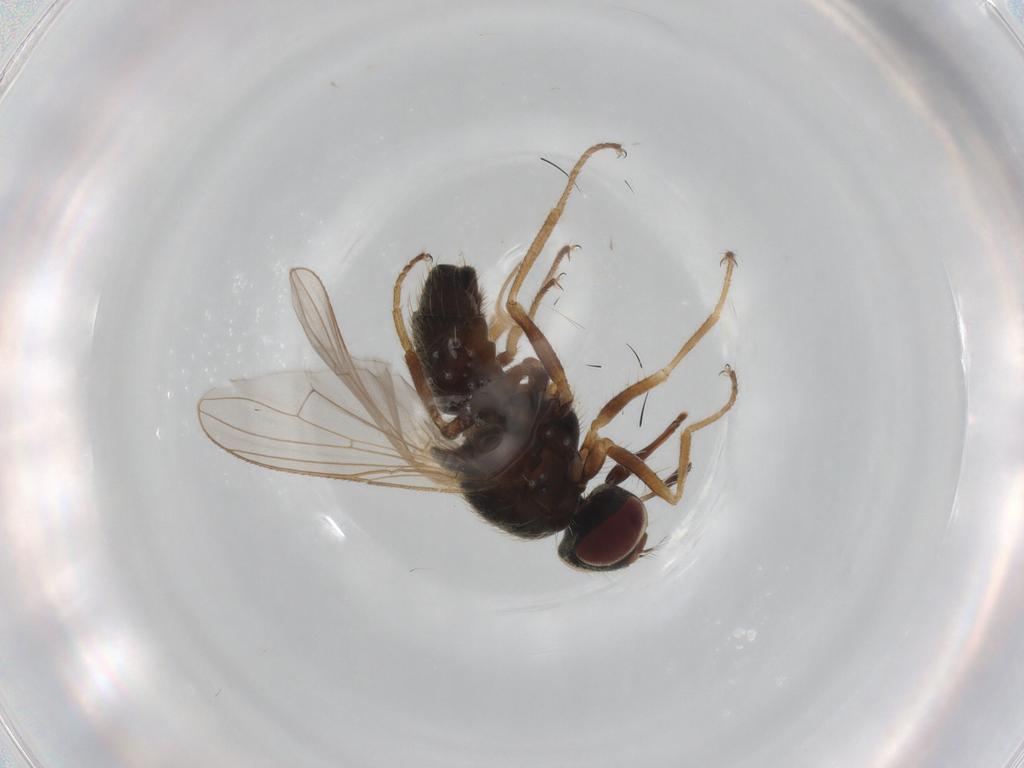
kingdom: Animalia
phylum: Arthropoda
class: Insecta
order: Diptera
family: Muscidae
